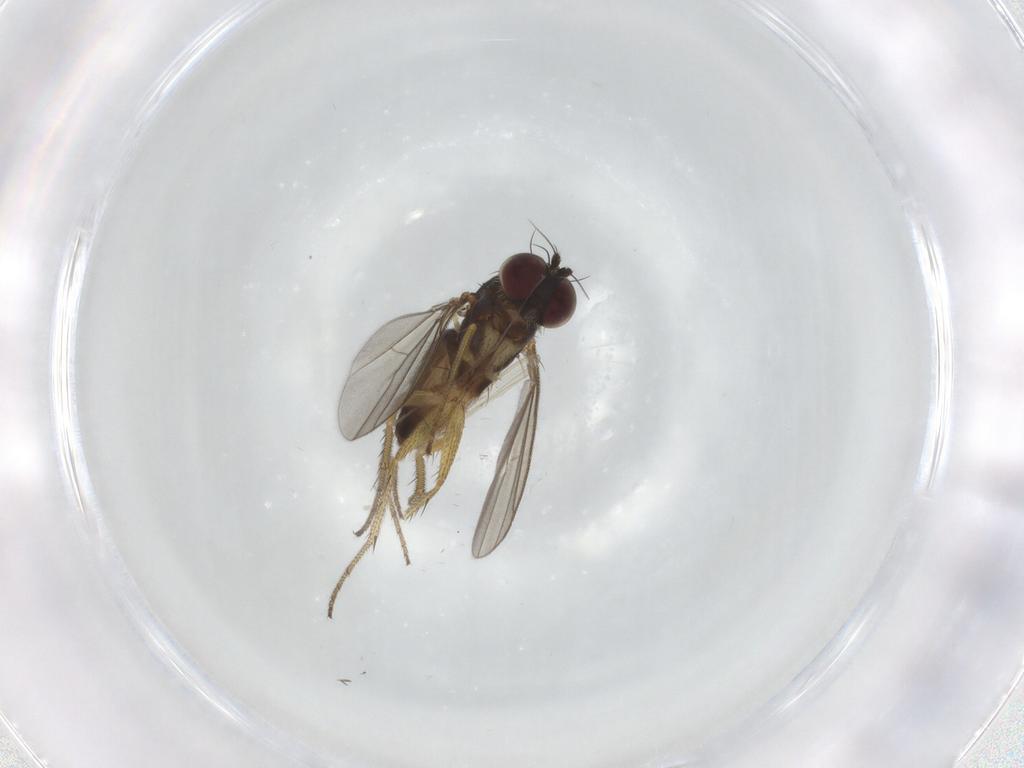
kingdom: Animalia
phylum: Arthropoda
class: Insecta
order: Diptera
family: Dolichopodidae
